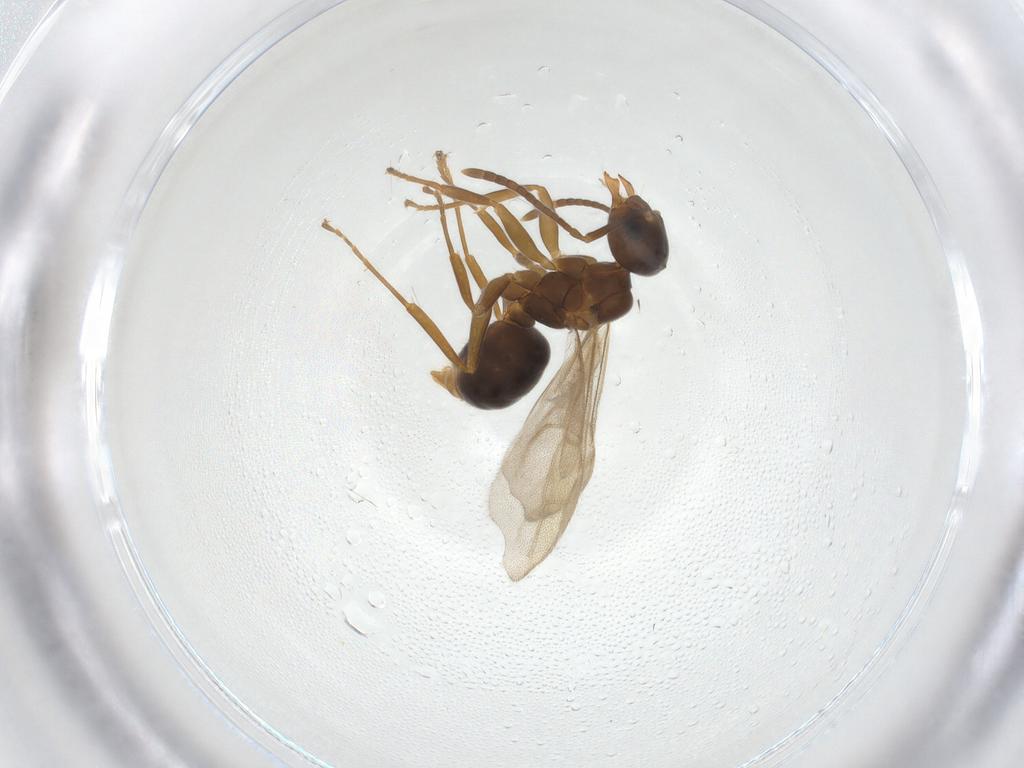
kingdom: Animalia
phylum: Arthropoda
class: Insecta
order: Hymenoptera
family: Formicidae
